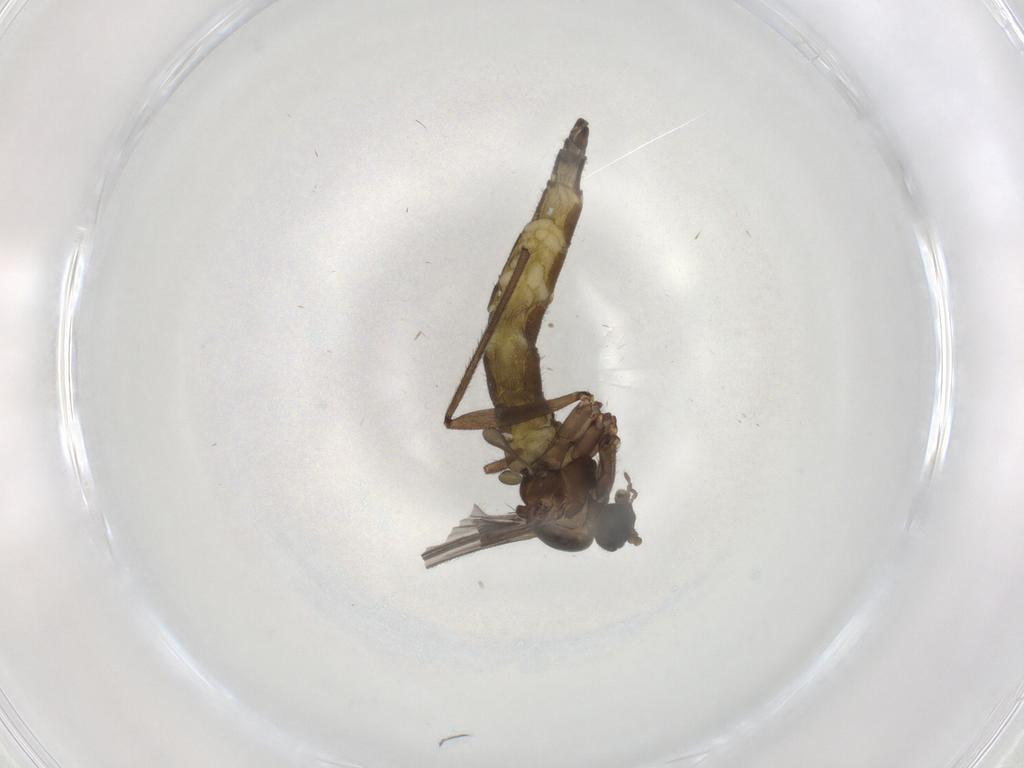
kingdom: Animalia
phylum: Arthropoda
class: Insecta
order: Diptera
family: Sciaridae
